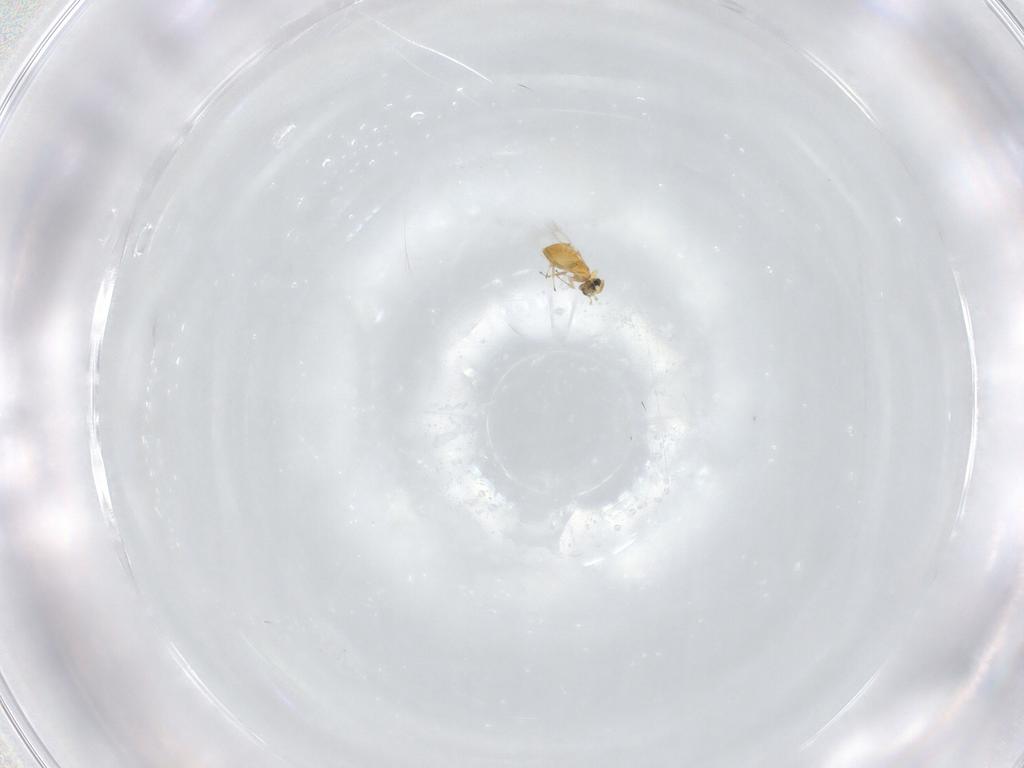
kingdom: Animalia
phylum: Arthropoda
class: Insecta
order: Hymenoptera
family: Trichogrammatidae
